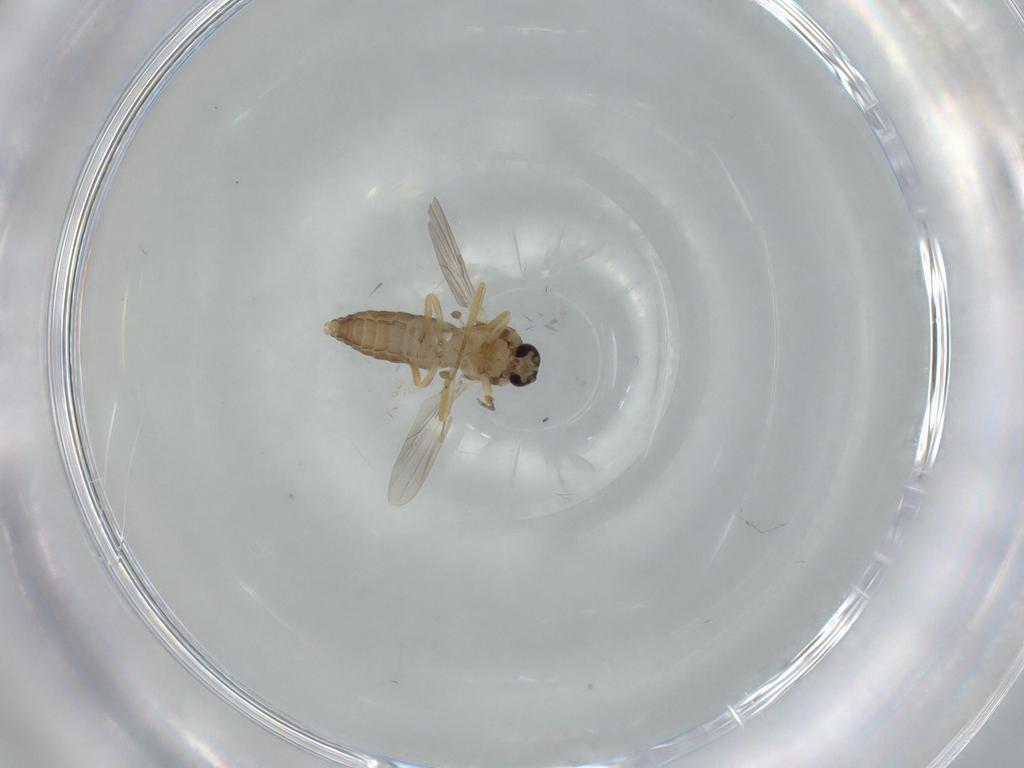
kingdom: Animalia
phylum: Arthropoda
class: Insecta
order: Diptera
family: Ceratopogonidae
